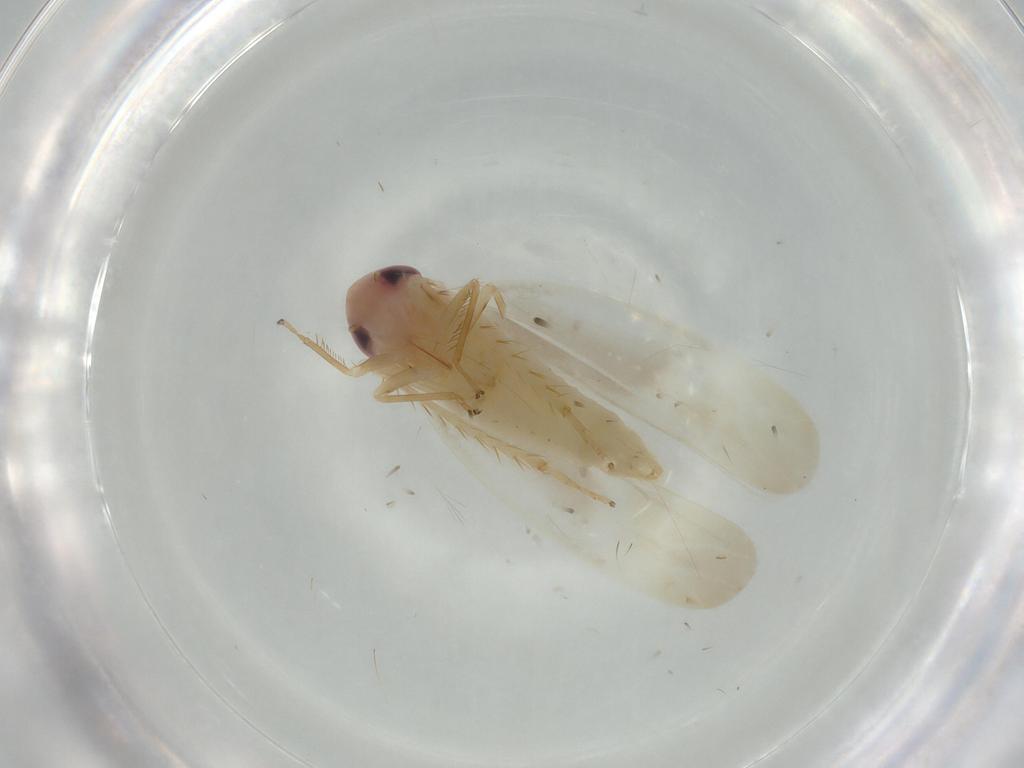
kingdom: Animalia
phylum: Arthropoda
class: Insecta
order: Hemiptera
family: Cicadellidae
